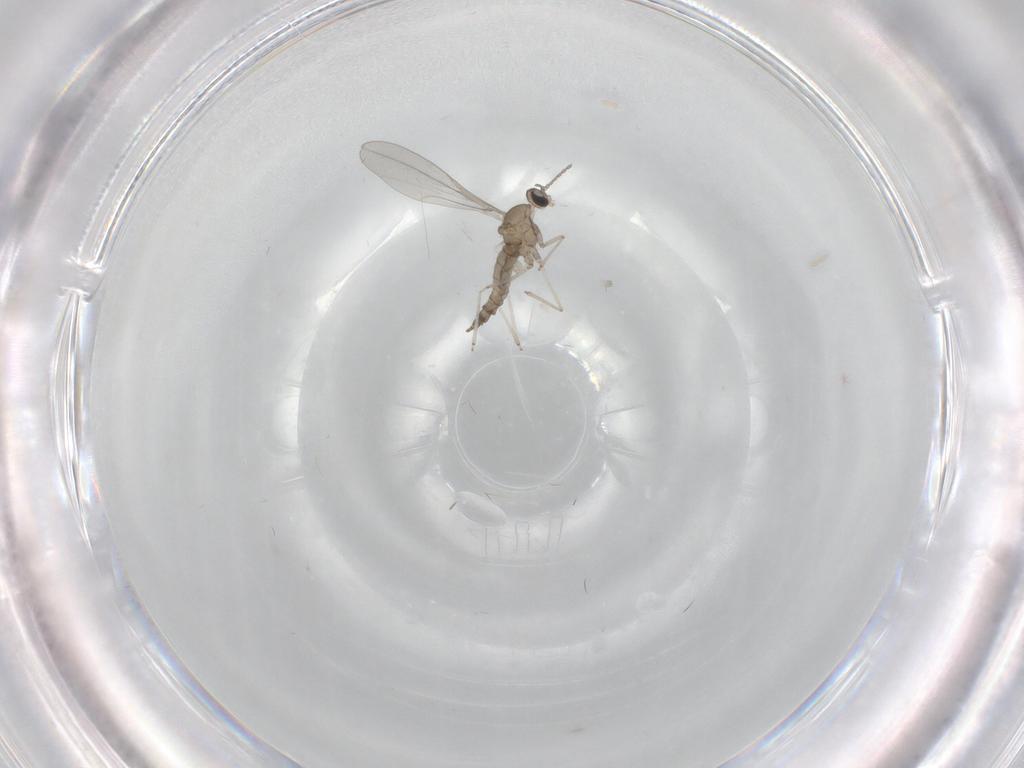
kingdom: Animalia
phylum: Arthropoda
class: Insecta
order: Diptera
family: Cecidomyiidae
